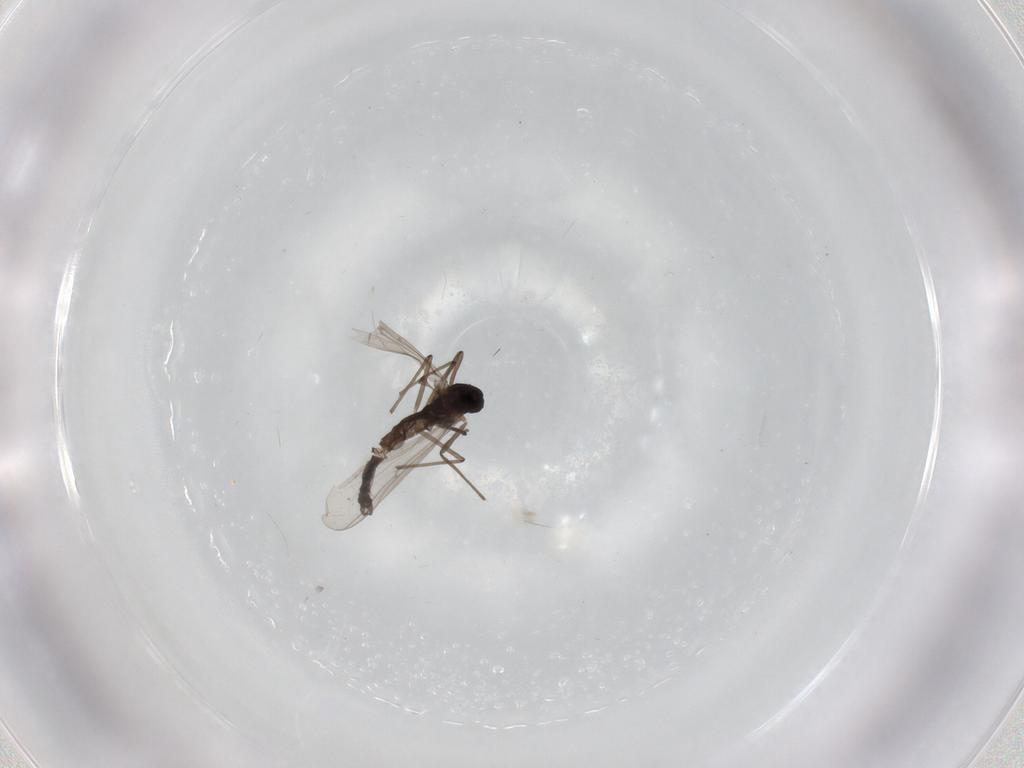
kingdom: Animalia
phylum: Arthropoda
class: Insecta
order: Diptera
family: Chironomidae
